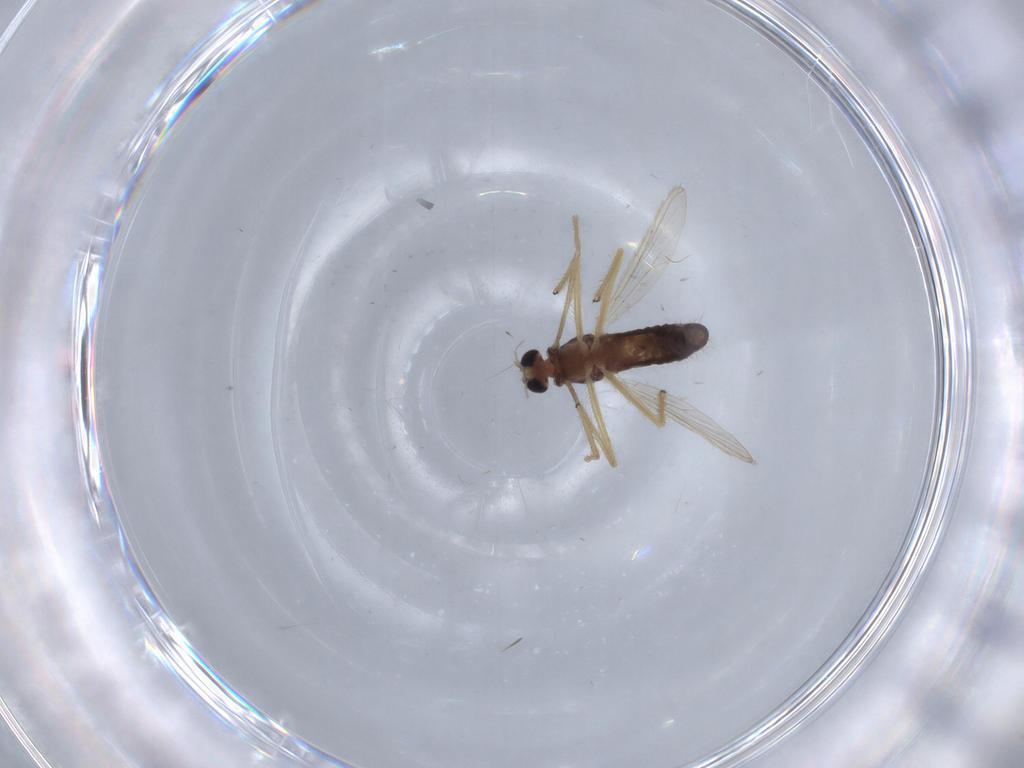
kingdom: Animalia
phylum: Arthropoda
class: Insecta
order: Diptera
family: Chironomidae
